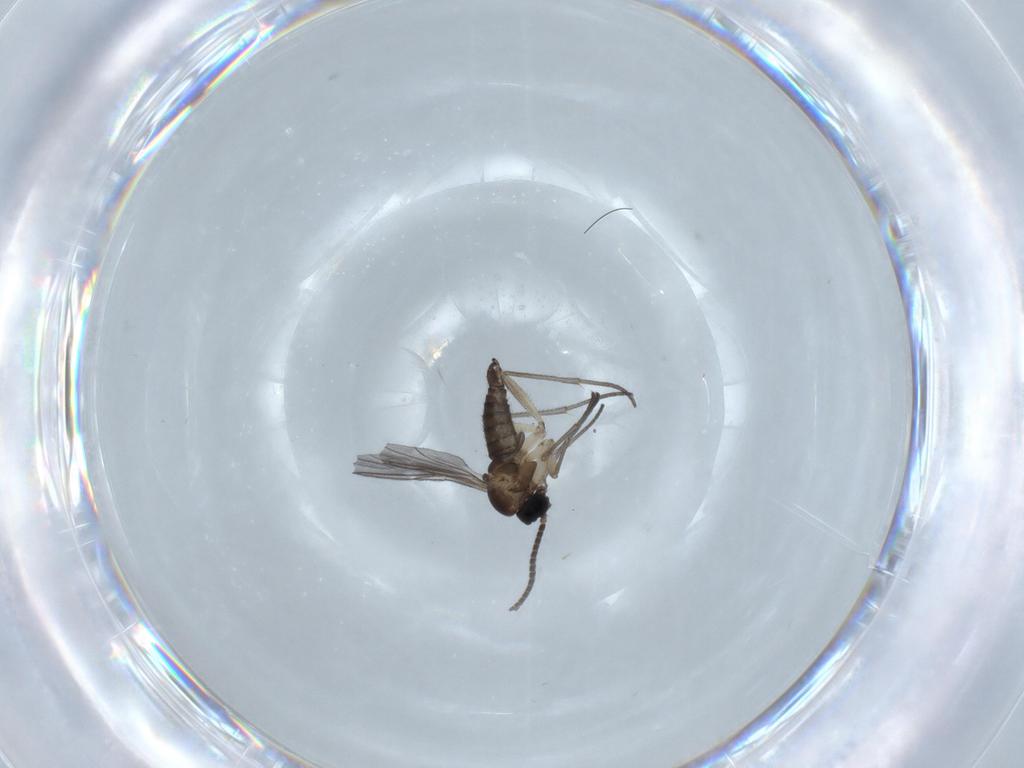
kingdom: Animalia
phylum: Arthropoda
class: Insecta
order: Diptera
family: Sciaridae
